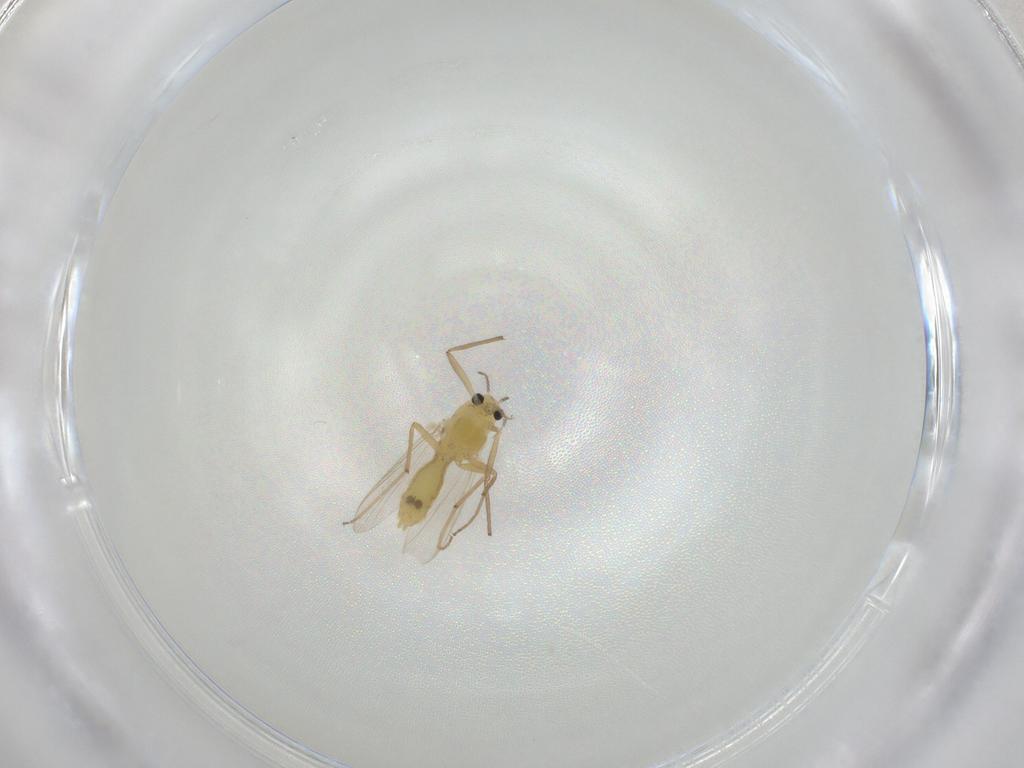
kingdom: Animalia
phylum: Arthropoda
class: Insecta
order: Diptera
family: Chironomidae
